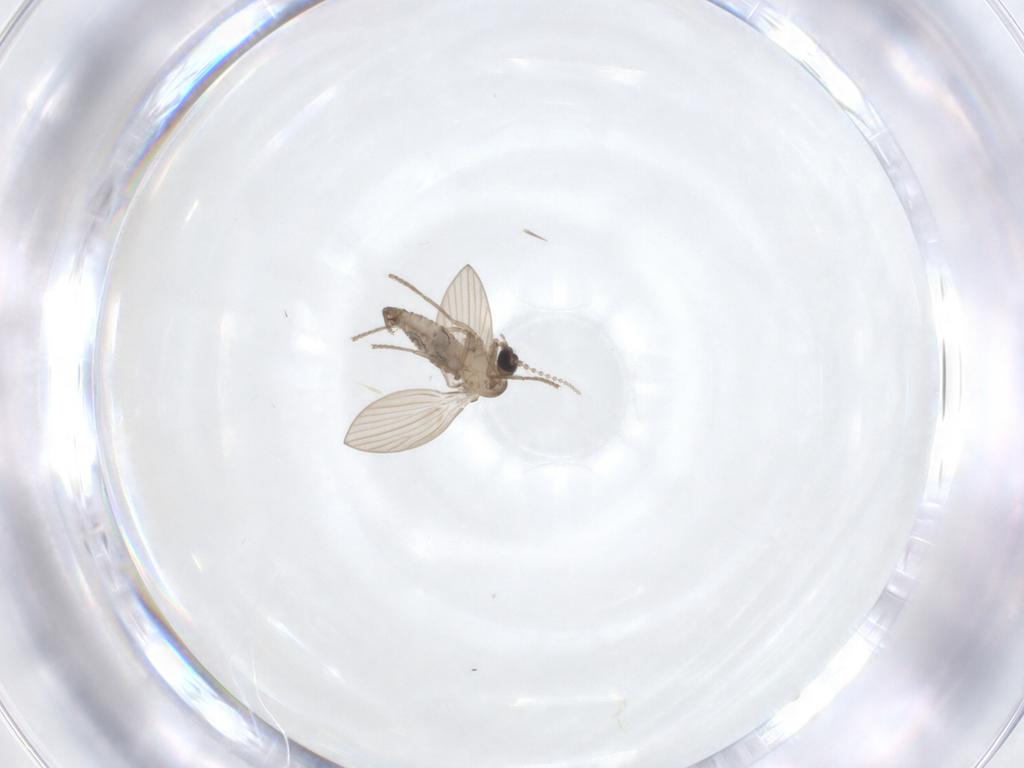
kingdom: Animalia
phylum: Arthropoda
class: Insecta
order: Diptera
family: Psychodidae
